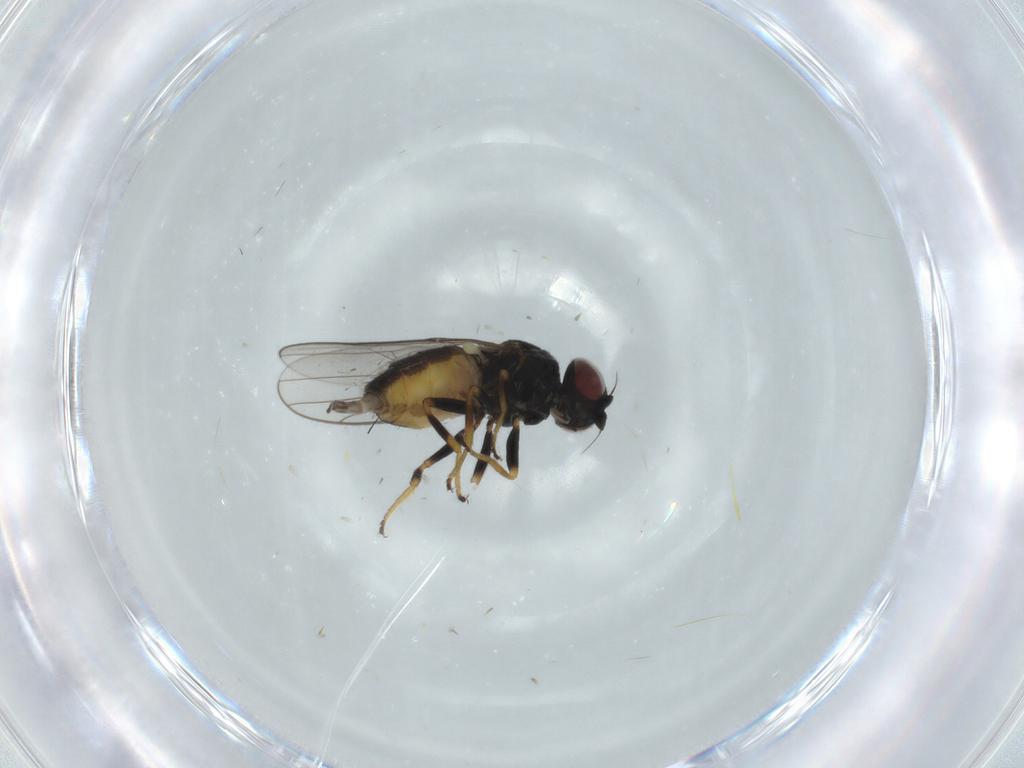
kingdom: Animalia
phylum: Arthropoda
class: Insecta
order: Diptera
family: Chloropidae
